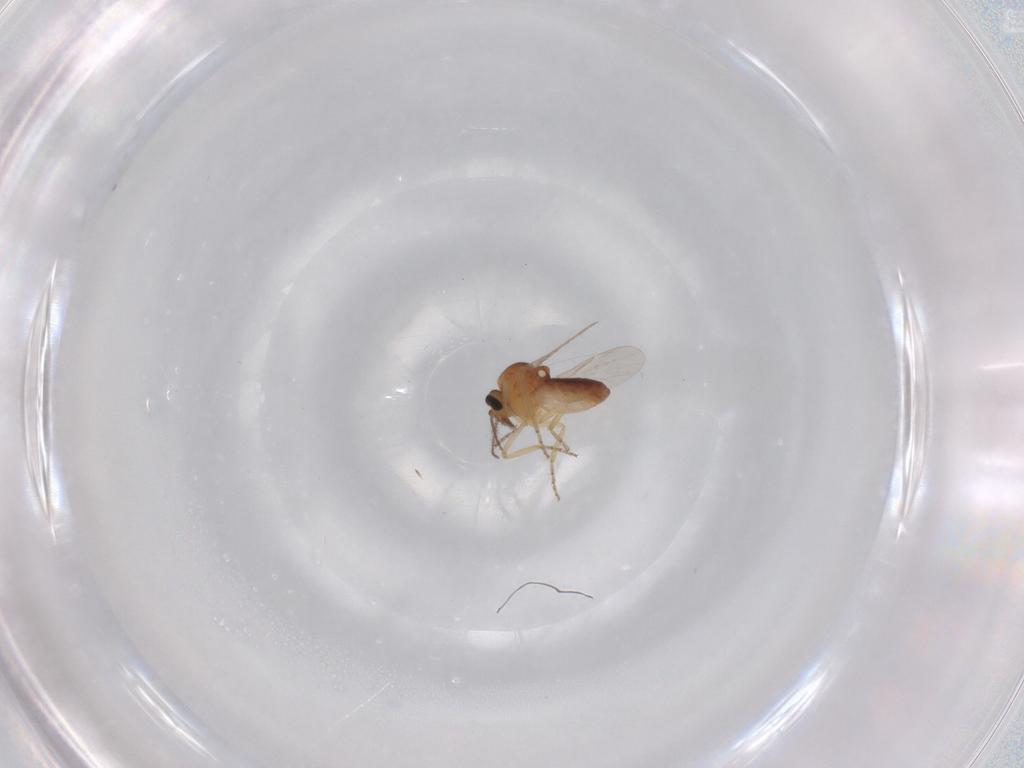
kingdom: Animalia
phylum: Arthropoda
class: Insecta
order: Diptera
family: Ceratopogonidae
